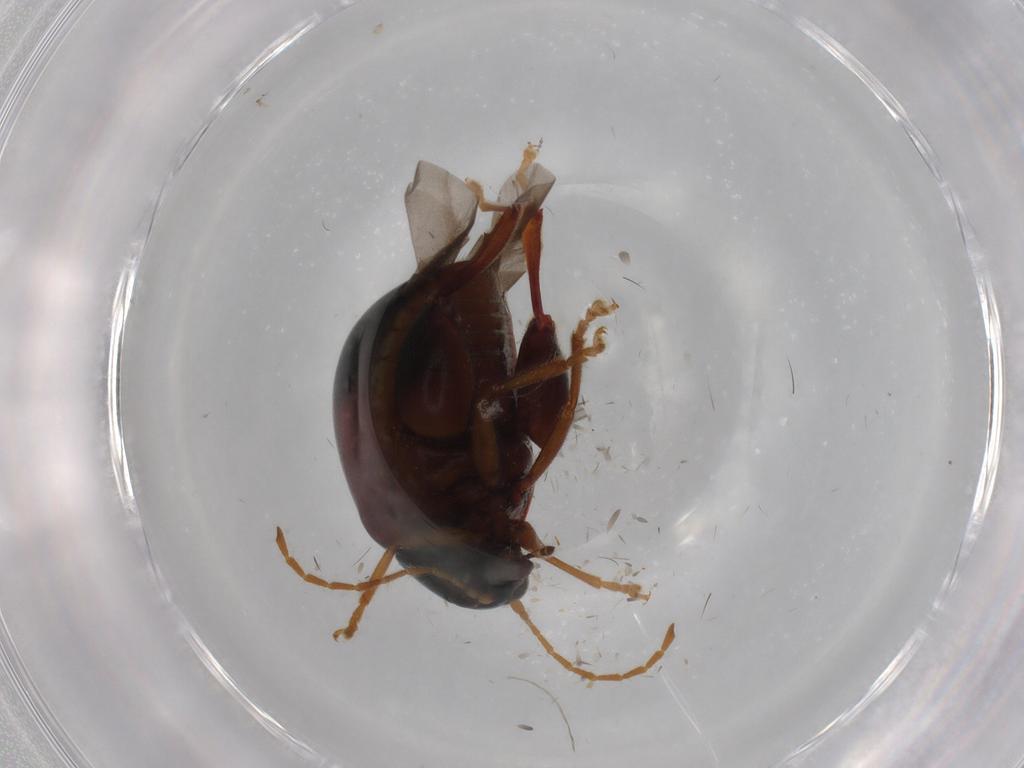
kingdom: Animalia
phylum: Arthropoda
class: Insecta
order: Coleoptera
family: Chrysomelidae
